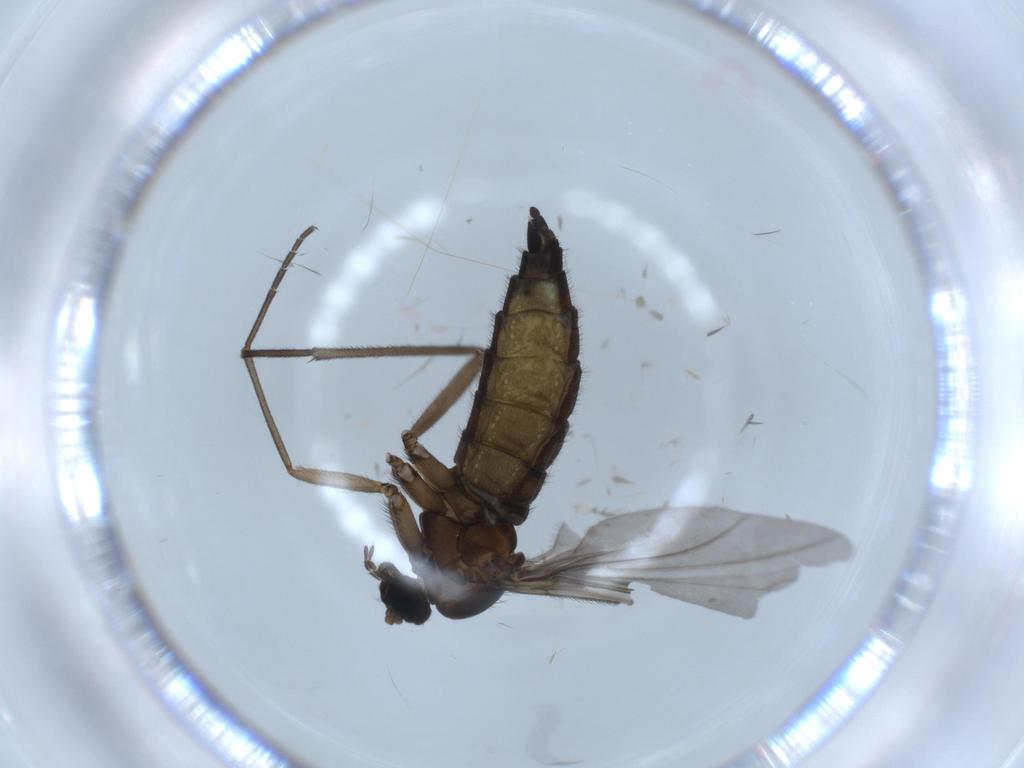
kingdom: Animalia
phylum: Arthropoda
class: Insecta
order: Diptera
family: Sciaridae
